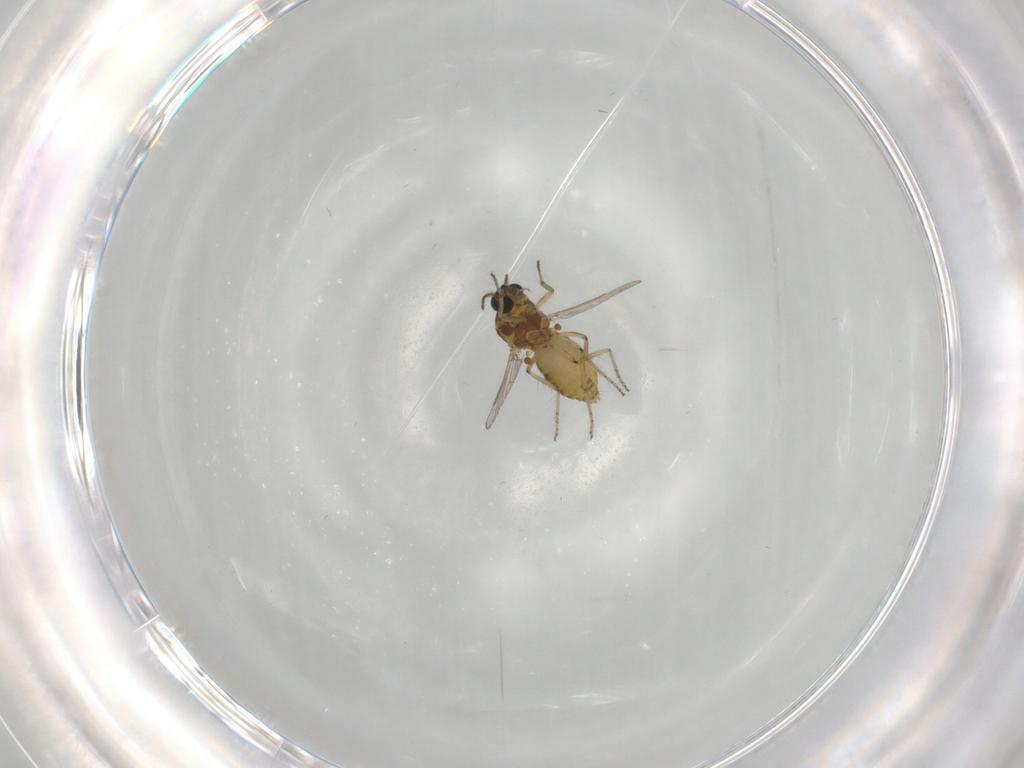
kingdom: Animalia
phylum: Arthropoda
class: Insecta
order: Diptera
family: Ceratopogonidae
